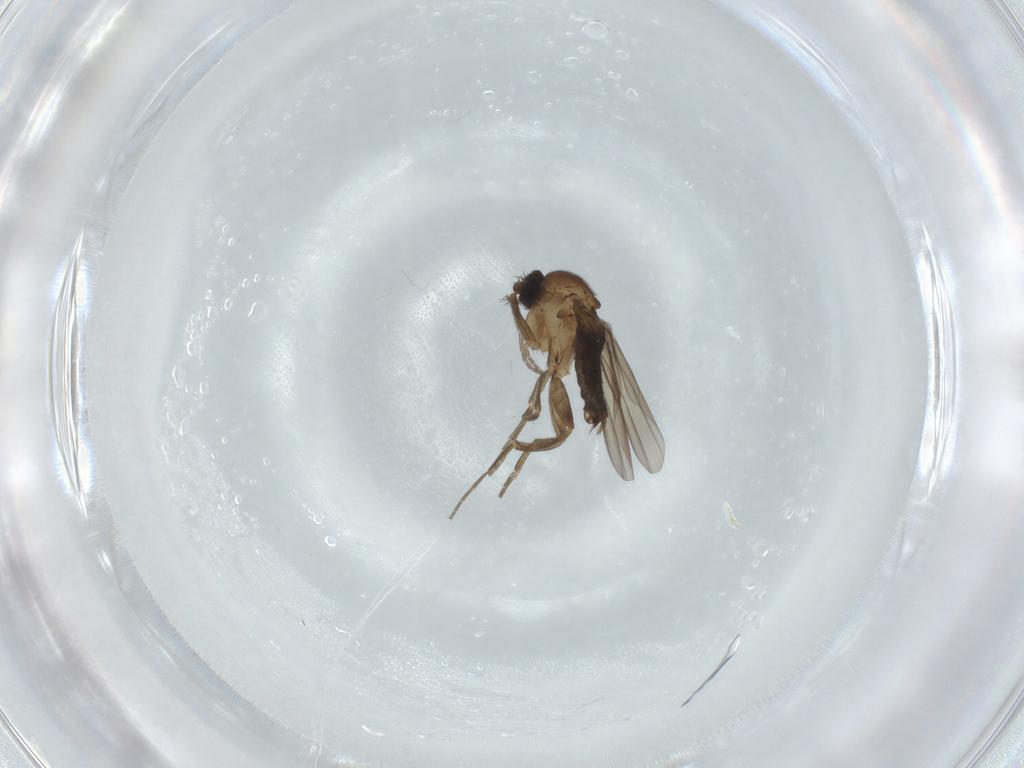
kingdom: Animalia
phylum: Arthropoda
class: Insecta
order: Diptera
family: Phoridae
